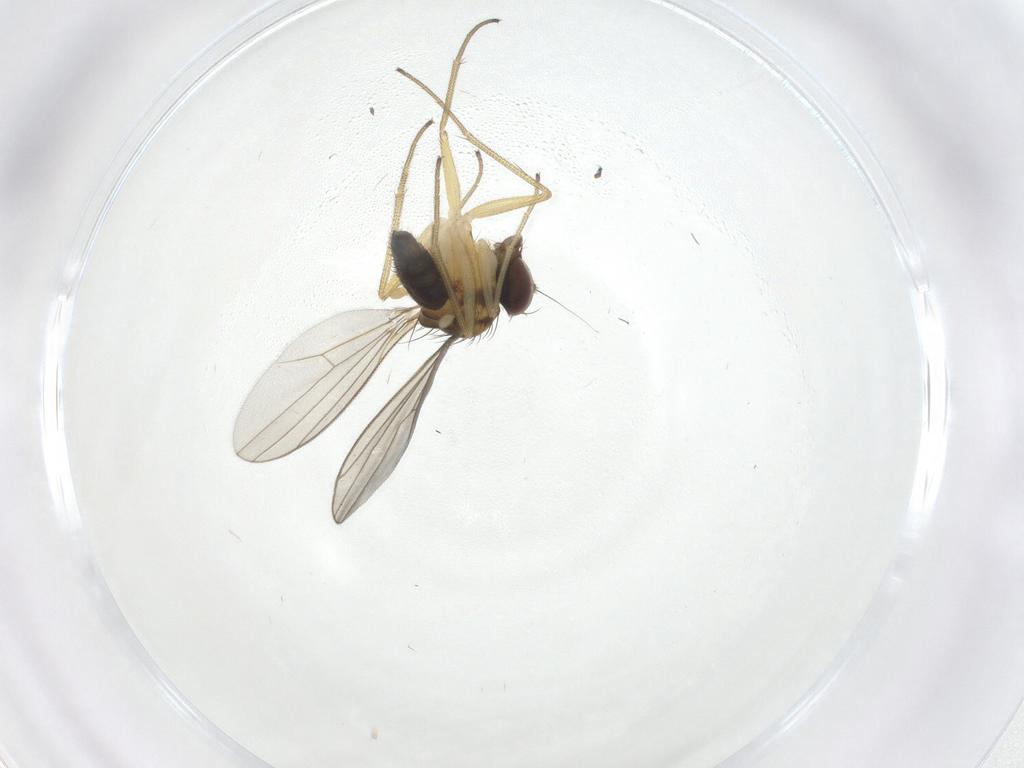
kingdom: Animalia
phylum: Arthropoda
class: Insecta
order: Diptera
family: Dolichopodidae
